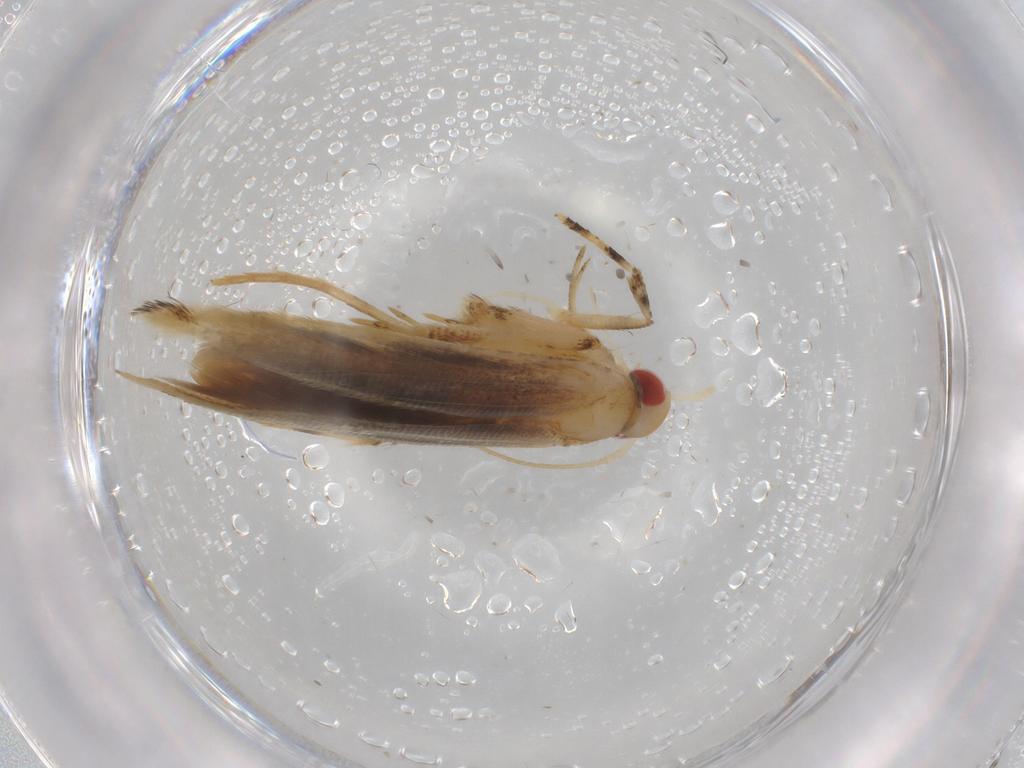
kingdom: Animalia
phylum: Arthropoda
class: Insecta
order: Lepidoptera
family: Cosmopterigidae
